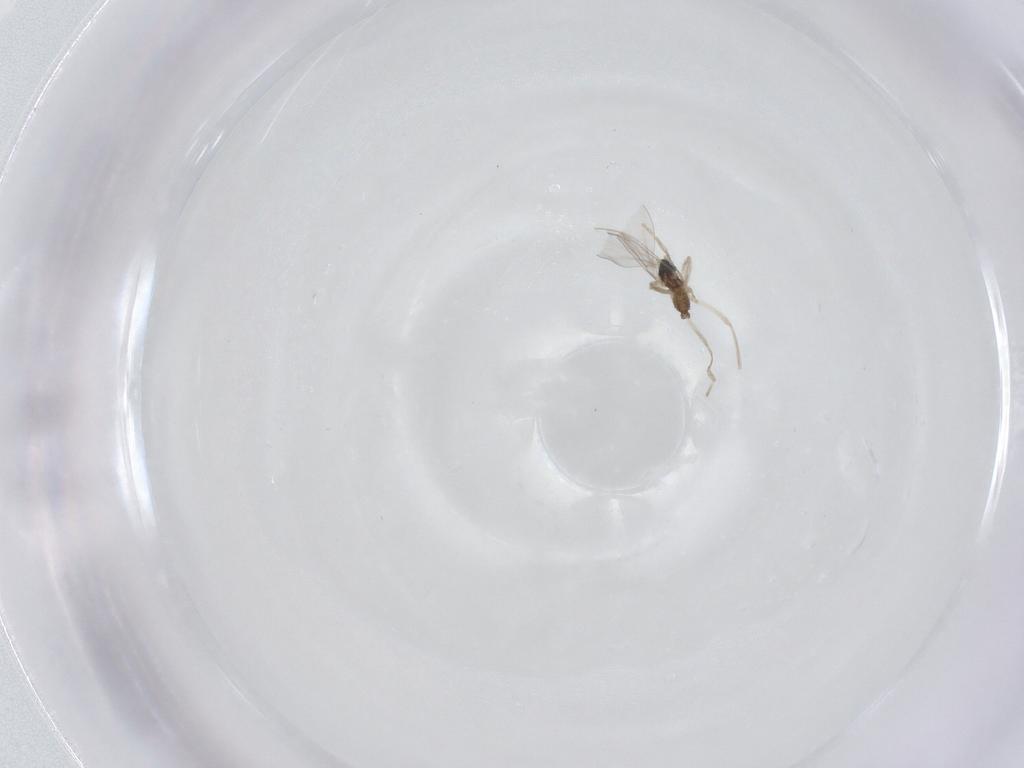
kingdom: Animalia
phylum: Arthropoda
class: Insecta
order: Diptera
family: Cecidomyiidae
